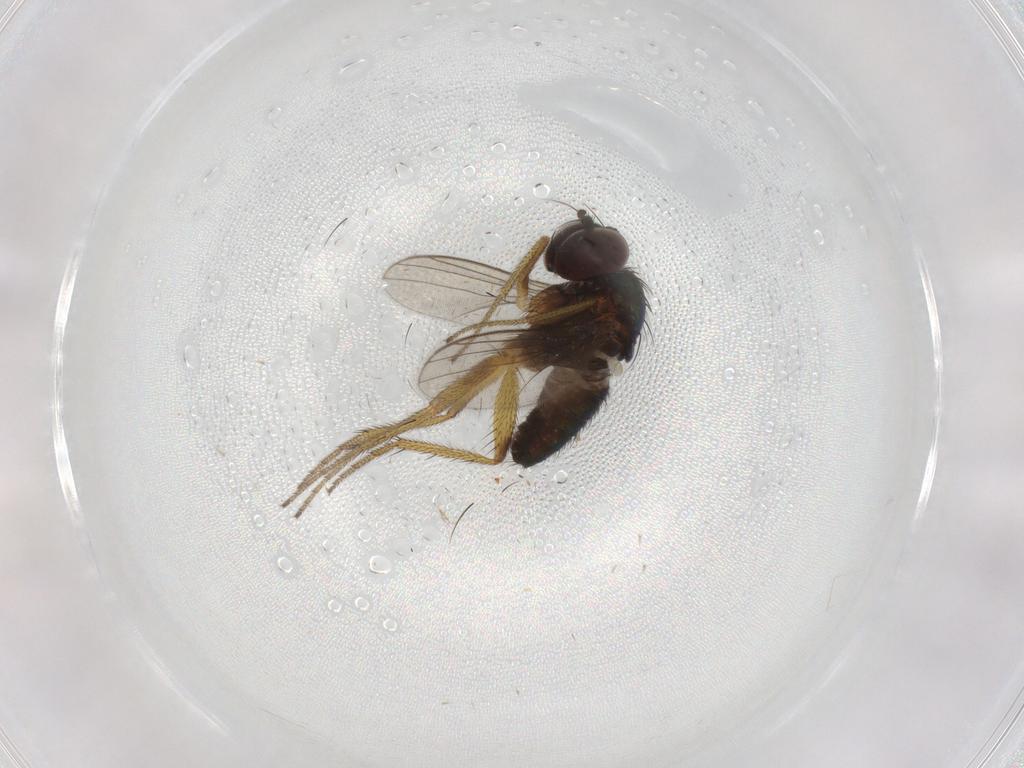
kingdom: Animalia
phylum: Arthropoda
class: Insecta
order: Diptera
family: Dolichopodidae
